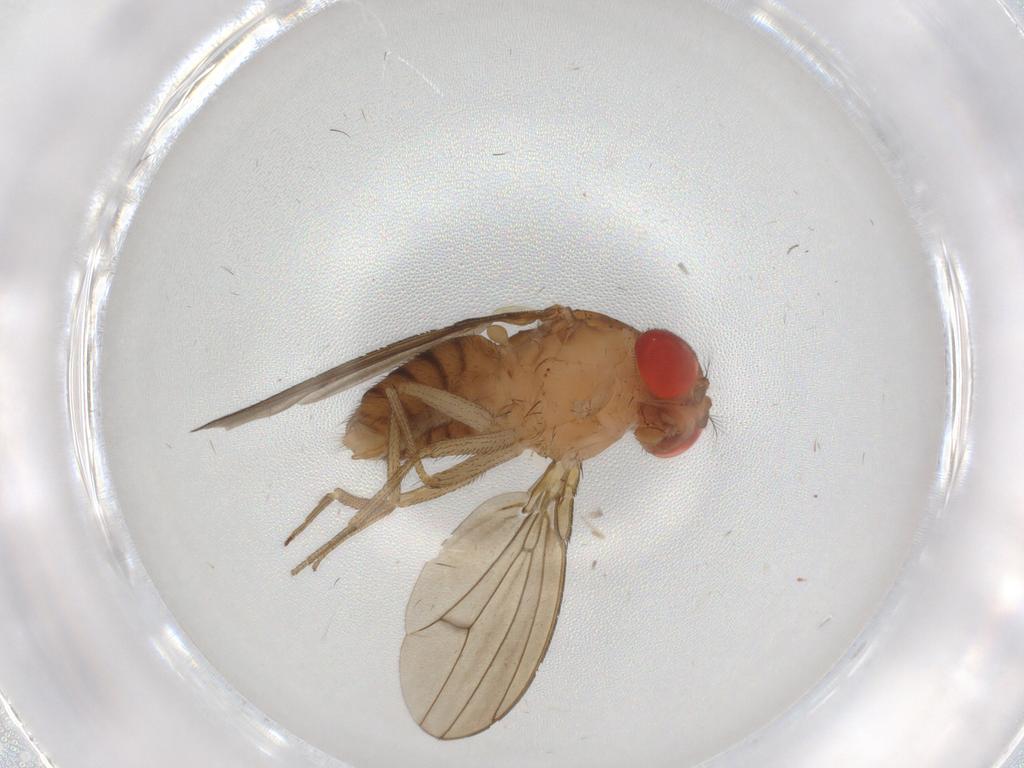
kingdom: Animalia
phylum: Arthropoda
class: Insecta
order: Diptera
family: Drosophilidae
